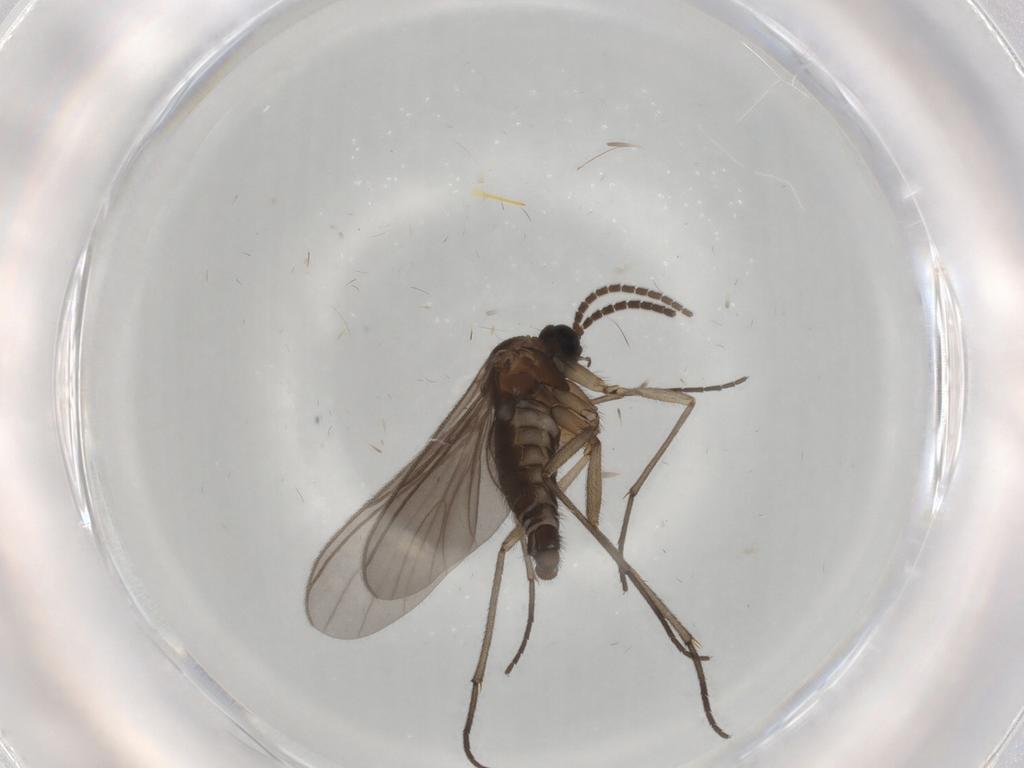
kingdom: Animalia
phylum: Arthropoda
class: Insecta
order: Diptera
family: Sciaridae
